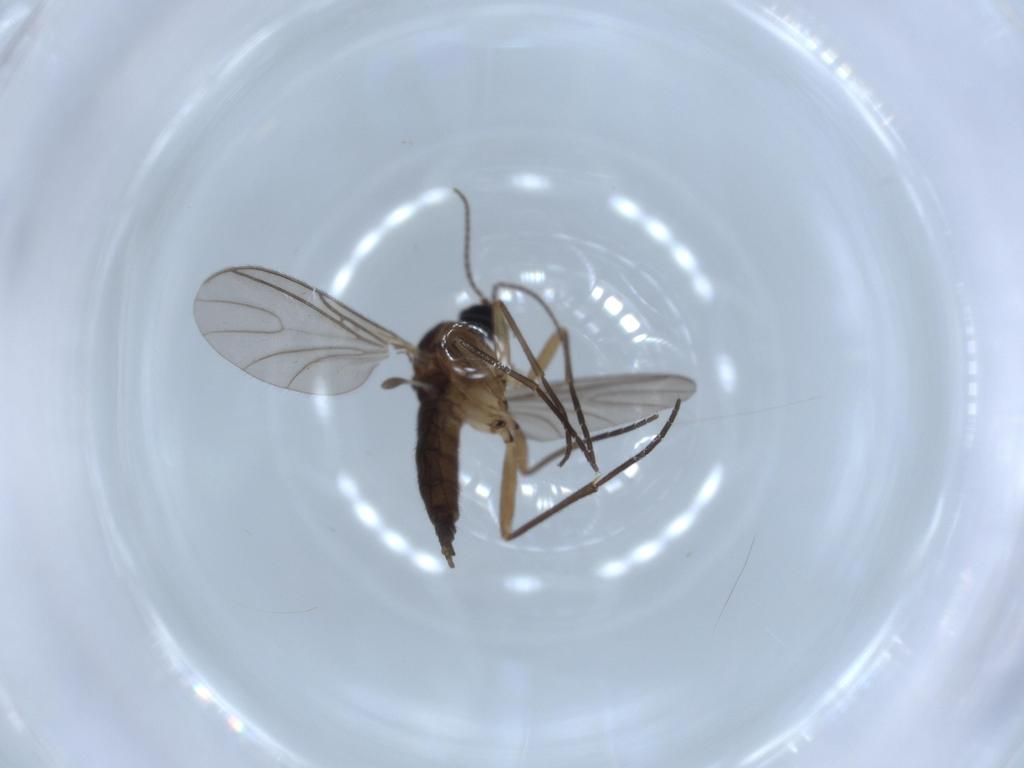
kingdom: Animalia
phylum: Arthropoda
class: Insecta
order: Diptera
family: Sciaridae
